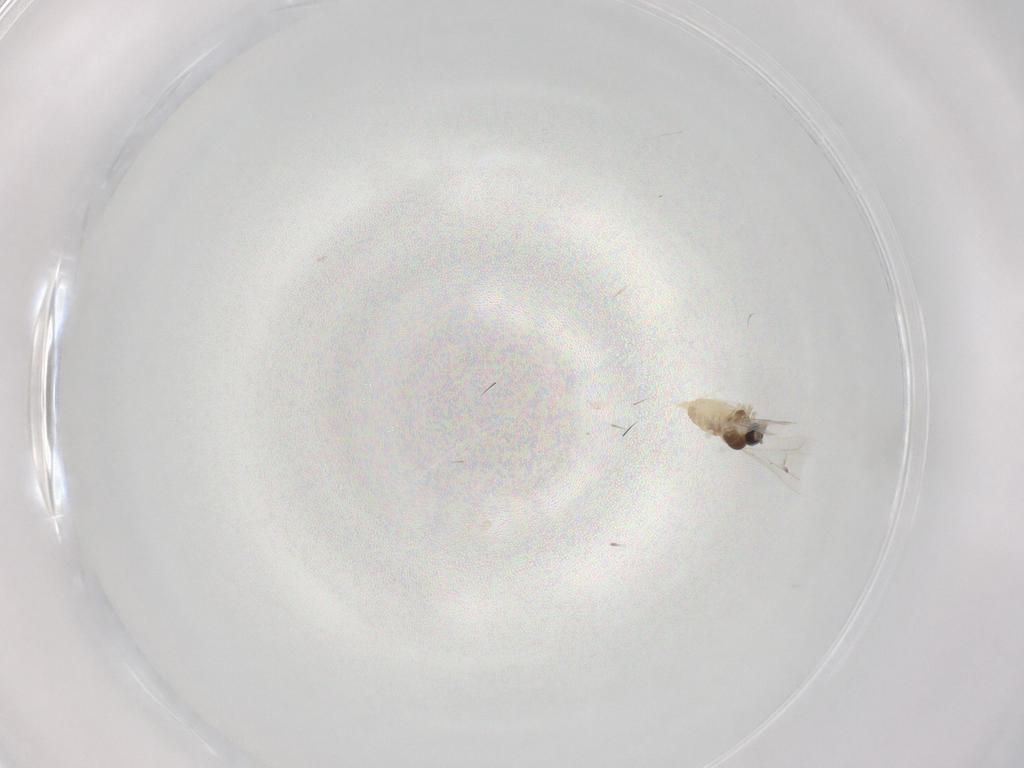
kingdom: Animalia
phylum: Arthropoda
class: Insecta
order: Diptera
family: Cecidomyiidae
